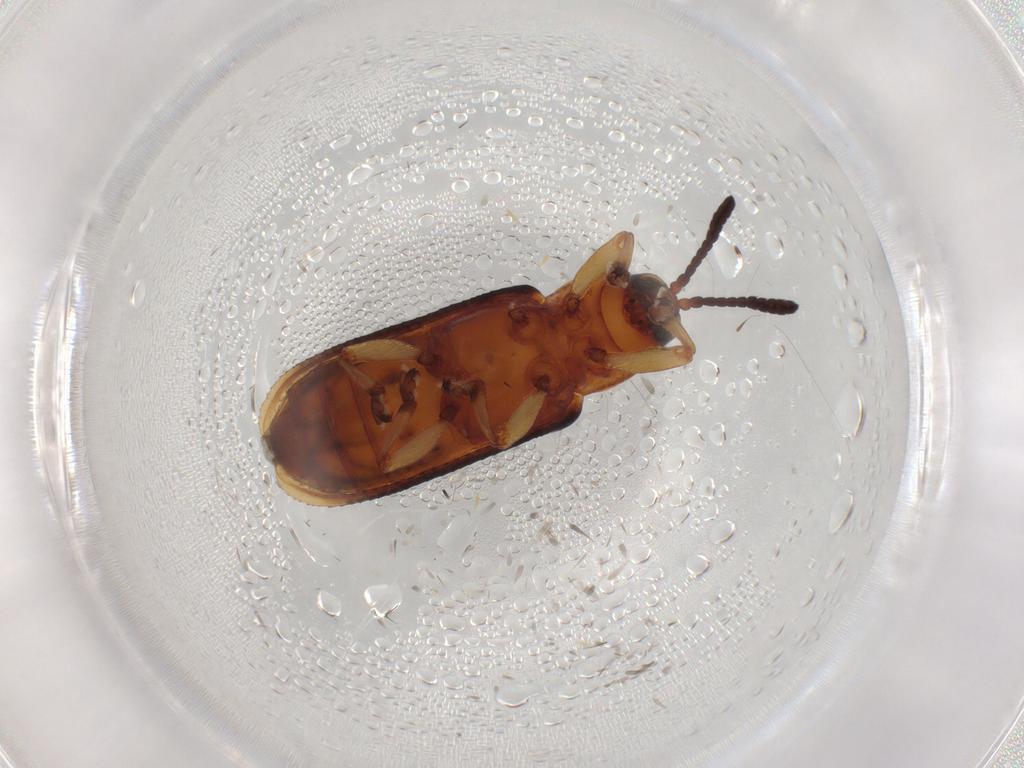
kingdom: Animalia
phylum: Arthropoda
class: Insecta
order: Coleoptera
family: Chrysomelidae
